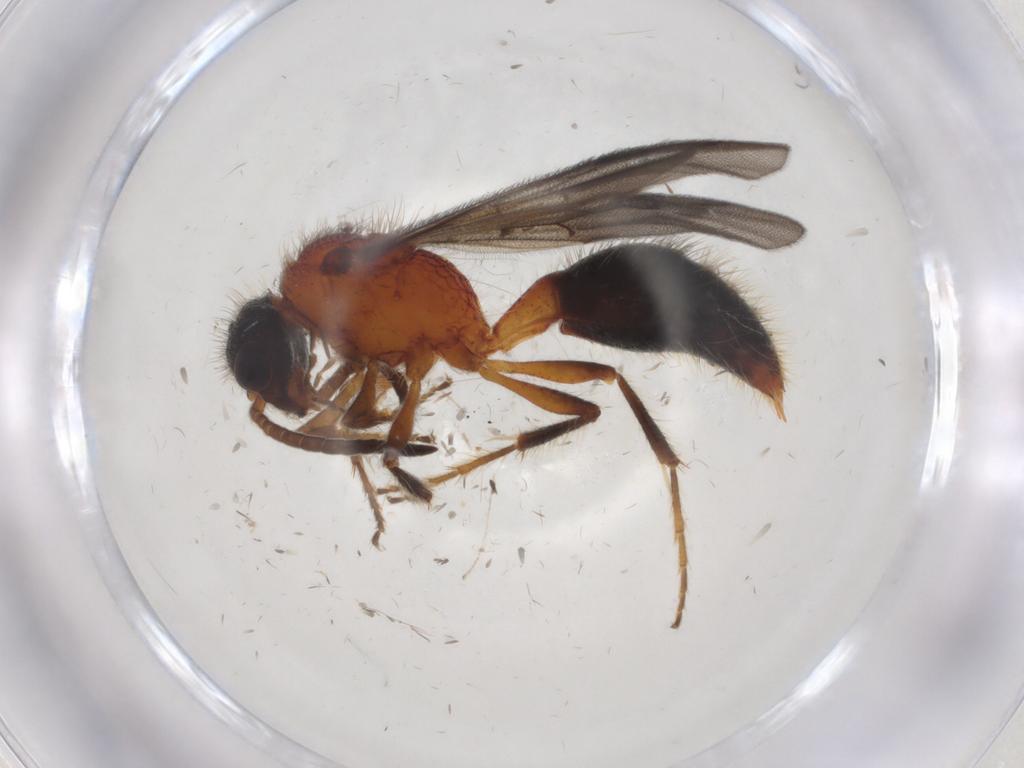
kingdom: Animalia
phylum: Arthropoda
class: Insecta
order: Hymenoptera
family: Mutillidae
